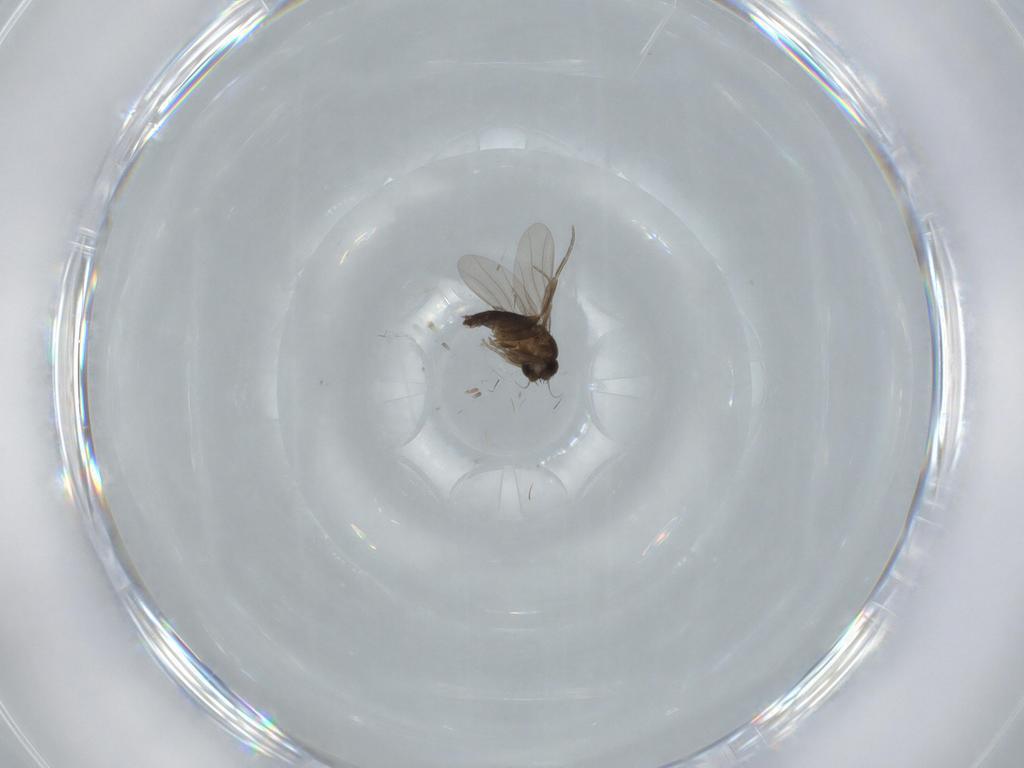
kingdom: Animalia
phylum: Arthropoda
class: Insecta
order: Diptera
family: Phoridae
